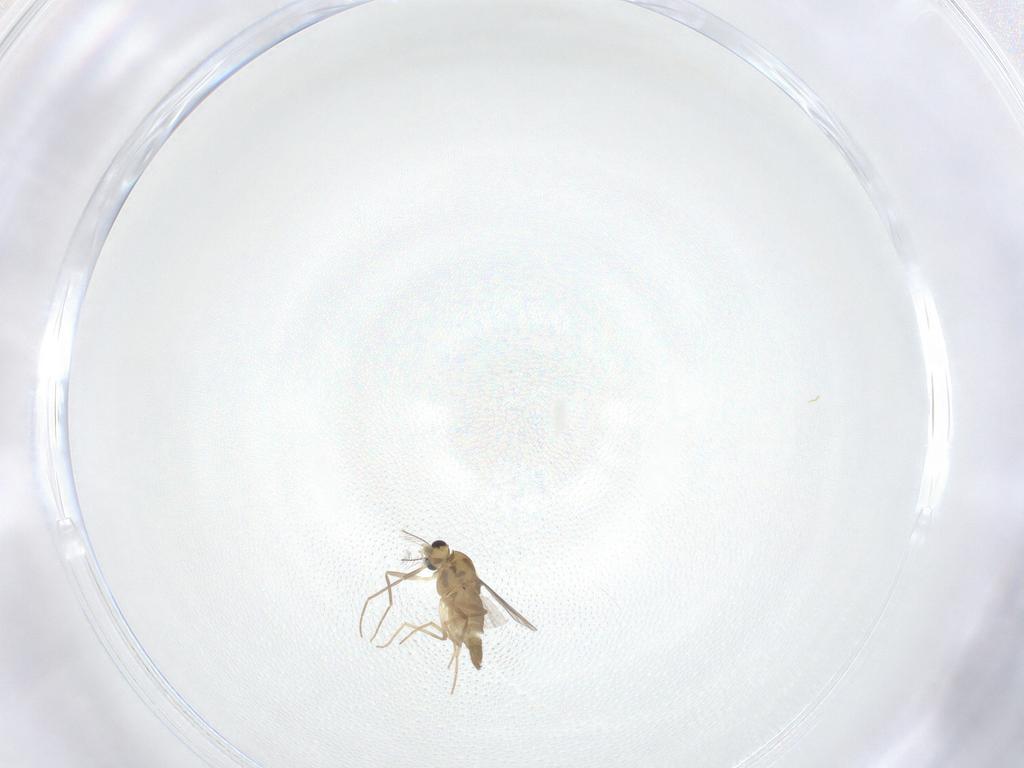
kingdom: Animalia
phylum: Arthropoda
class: Insecta
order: Diptera
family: Chironomidae
